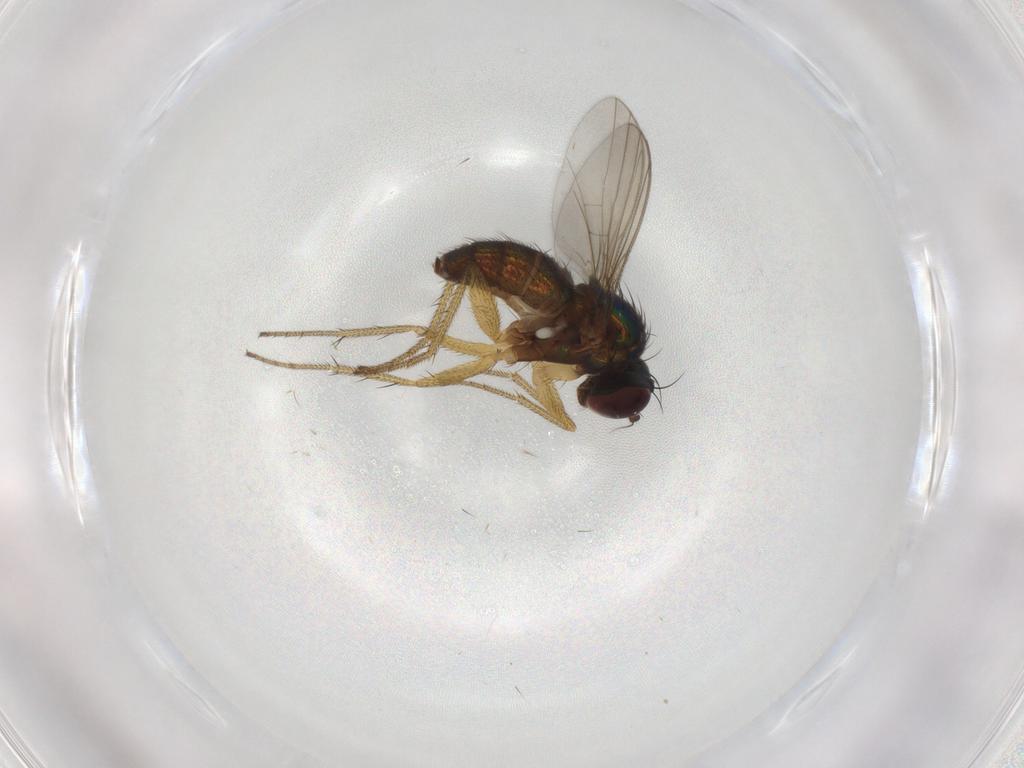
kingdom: Animalia
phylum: Arthropoda
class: Insecta
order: Diptera
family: Dolichopodidae
